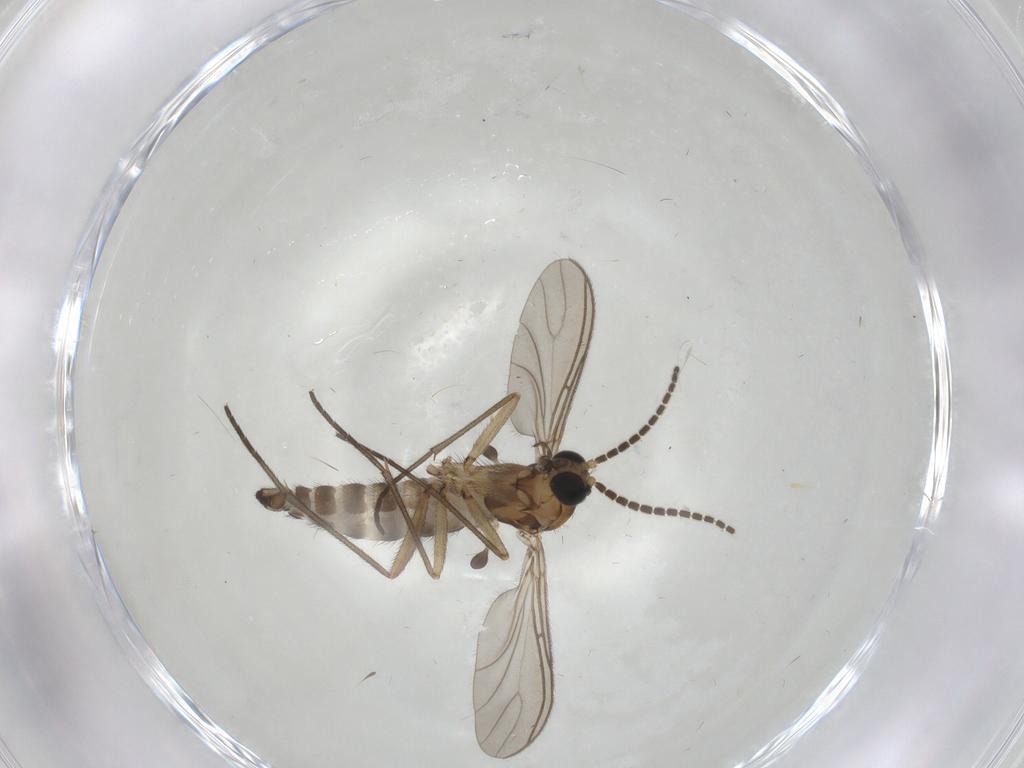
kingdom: Animalia
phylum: Arthropoda
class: Insecta
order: Diptera
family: Sciaridae
